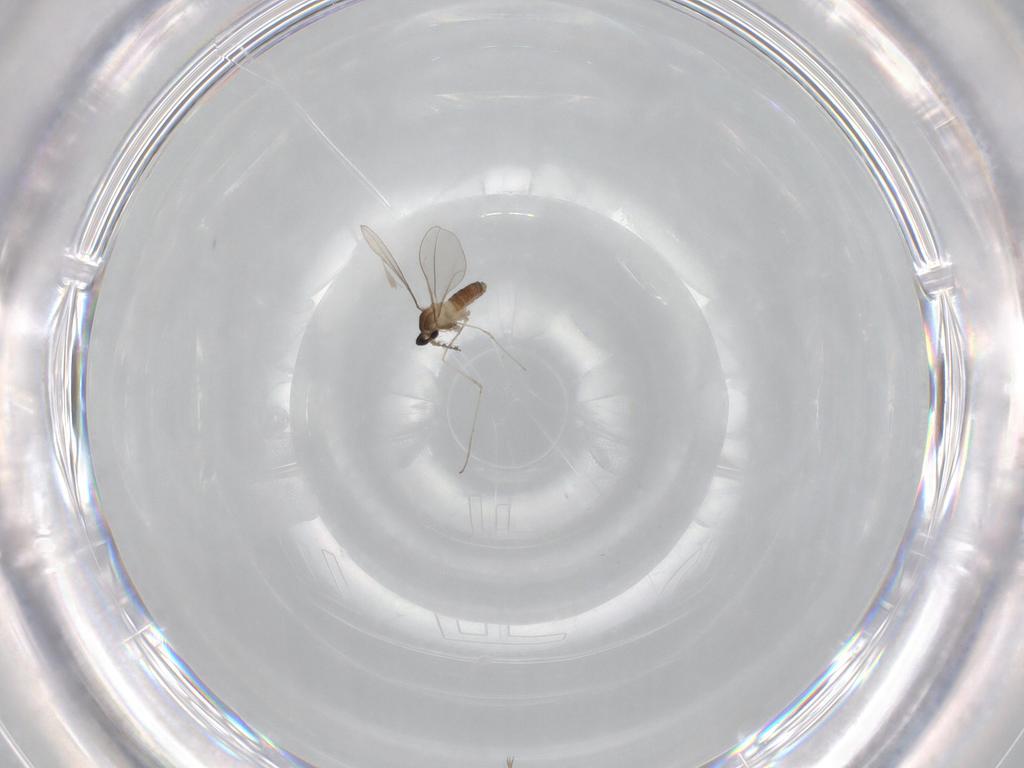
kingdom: Animalia
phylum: Arthropoda
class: Insecta
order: Diptera
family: Cecidomyiidae
